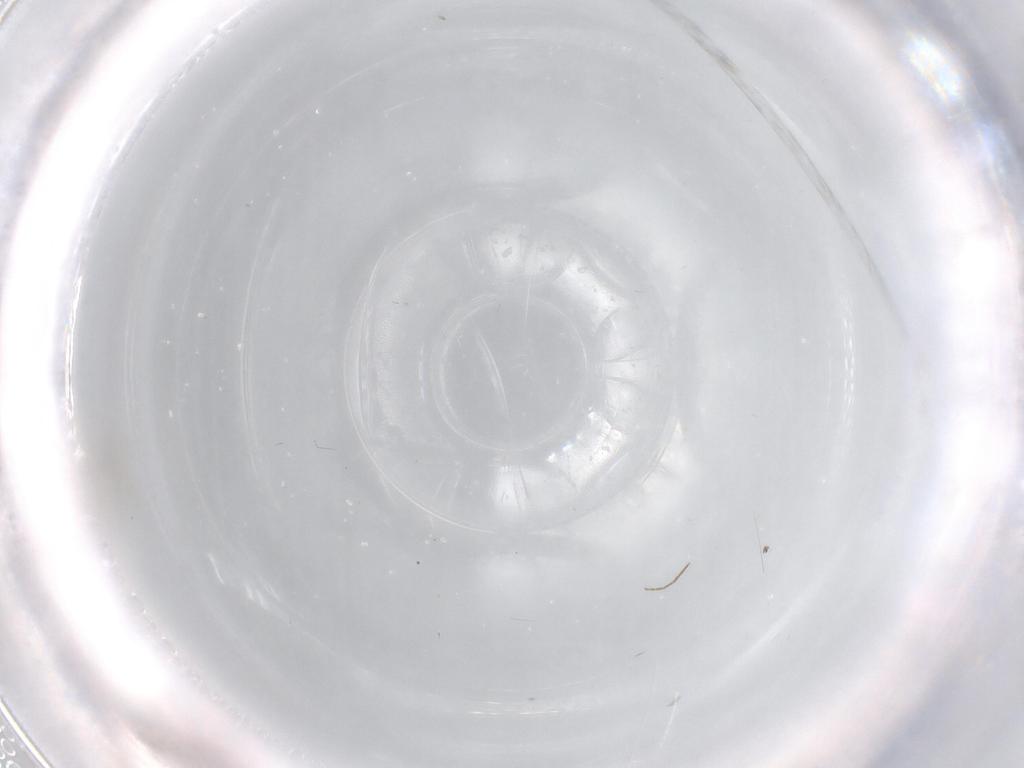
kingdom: Animalia
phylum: Arthropoda
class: Insecta
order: Diptera
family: Chironomidae
